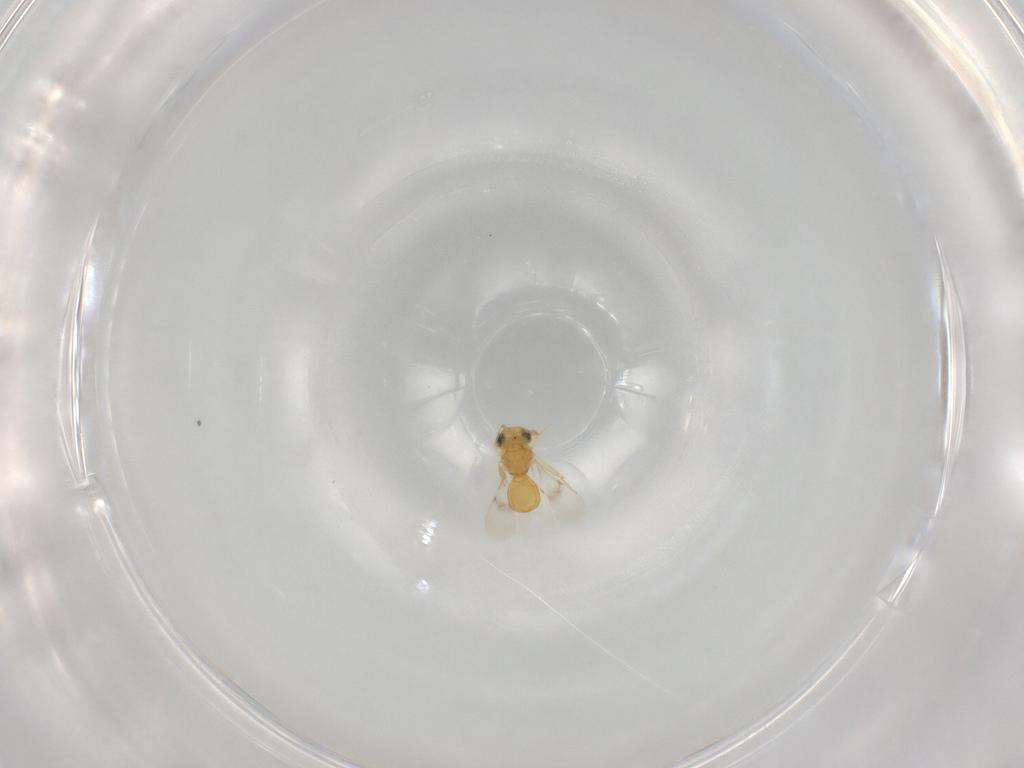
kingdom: Animalia
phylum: Arthropoda
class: Insecta
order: Hymenoptera
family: Scelionidae
